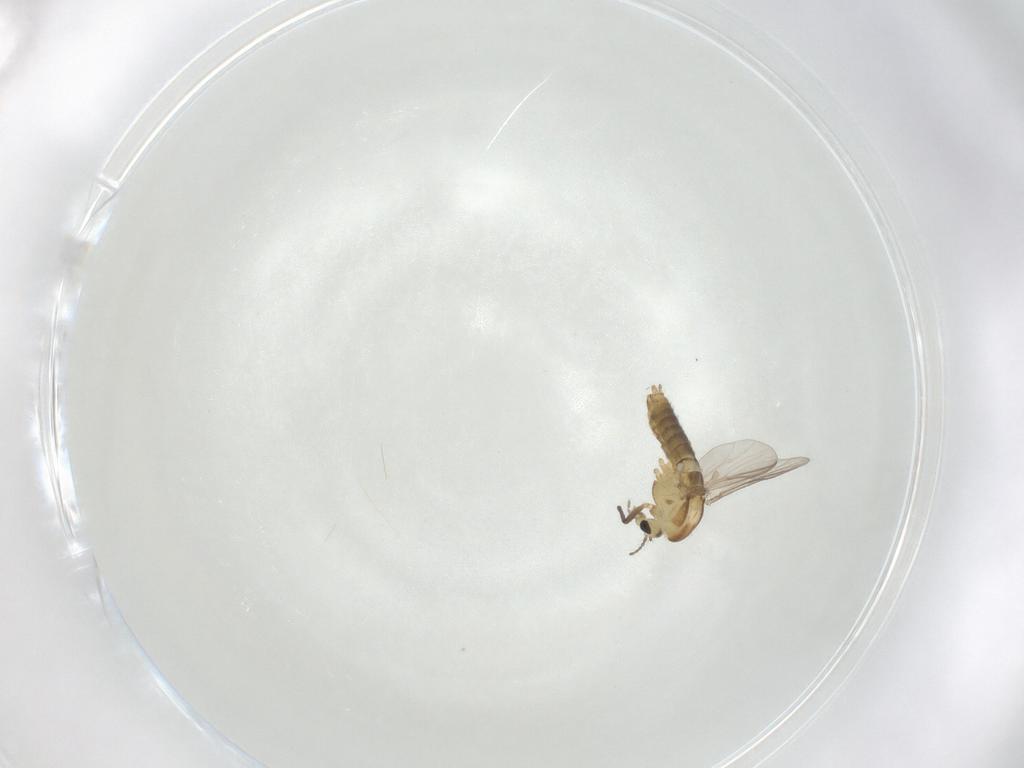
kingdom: Animalia
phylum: Arthropoda
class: Insecta
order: Diptera
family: Chironomidae
